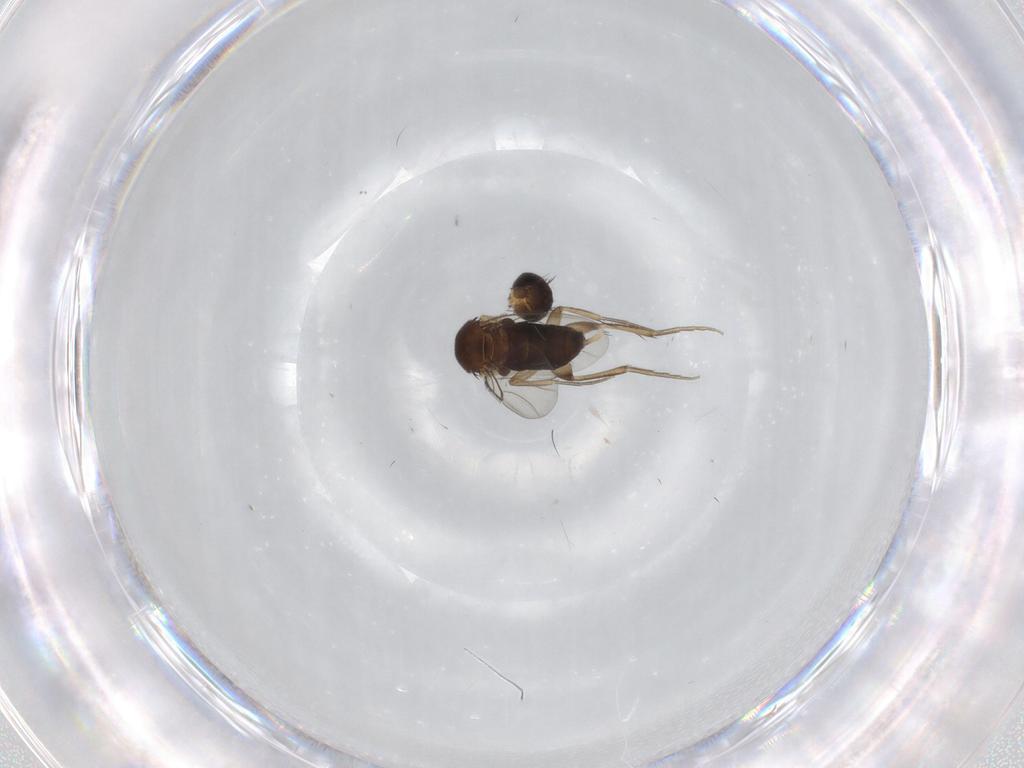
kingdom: Animalia
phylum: Arthropoda
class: Insecta
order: Diptera
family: Phoridae
